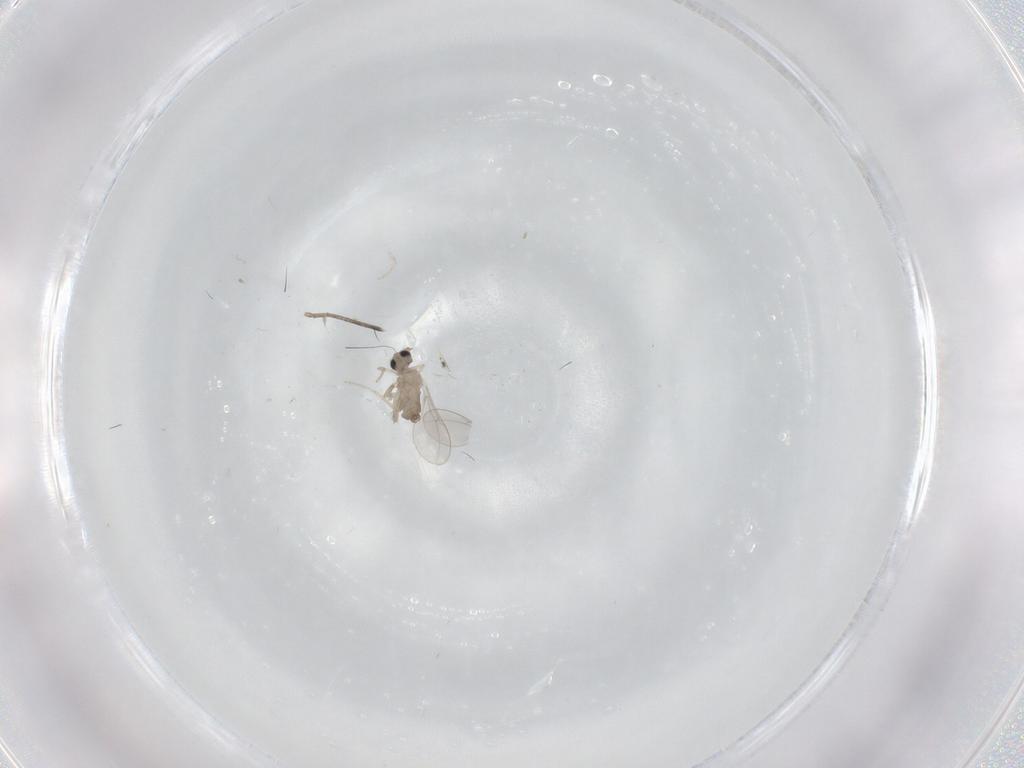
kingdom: Animalia
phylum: Arthropoda
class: Insecta
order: Diptera
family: Cecidomyiidae
